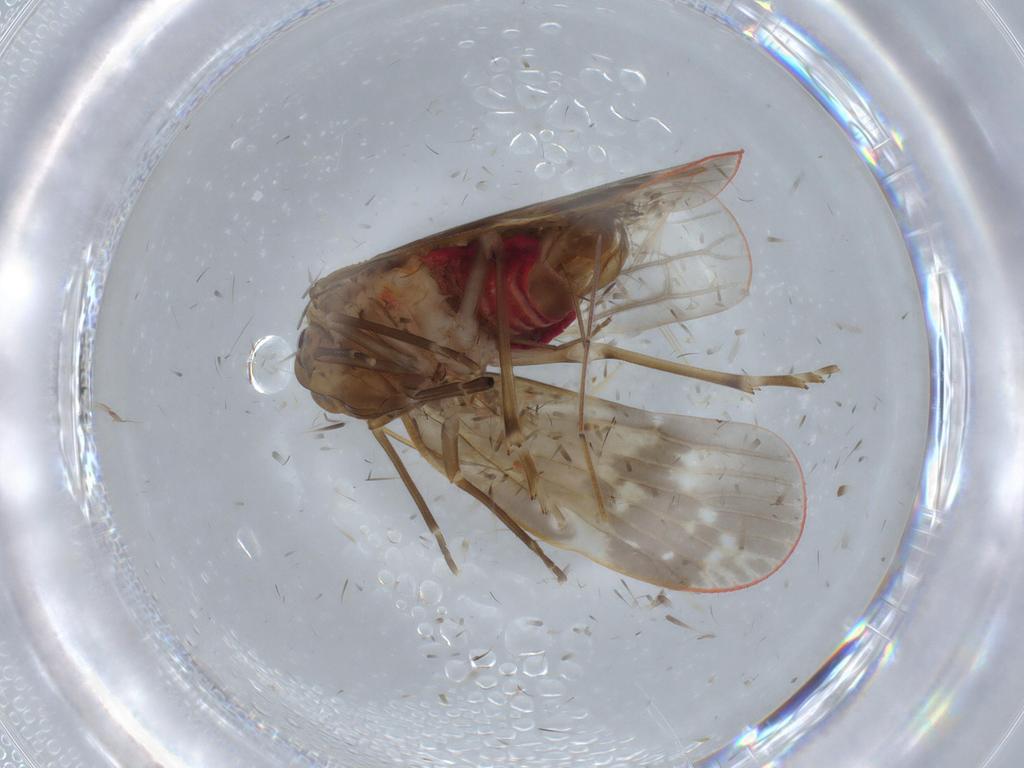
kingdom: Animalia
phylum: Arthropoda
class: Insecta
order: Hemiptera
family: Achilidae
